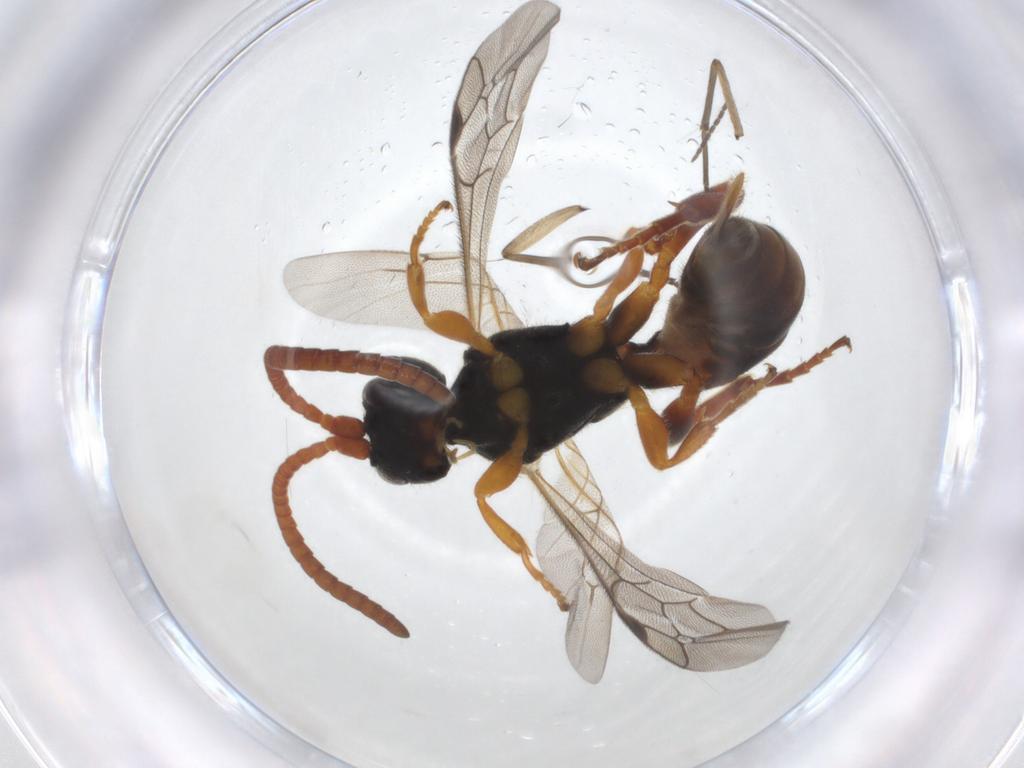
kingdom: Animalia
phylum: Arthropoda
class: Insecta
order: Hymenoptera
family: Ichneumonidae
